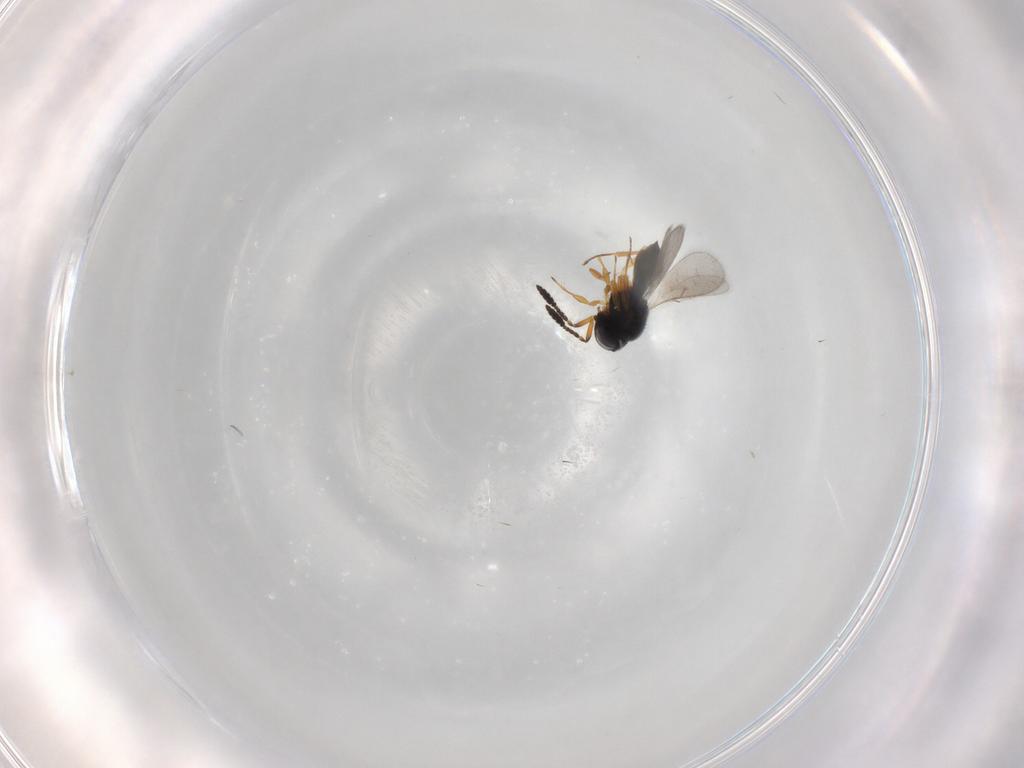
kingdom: Animalia
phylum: Arthropoda
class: Insecta
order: Hymenoptera
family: Scelionidae
